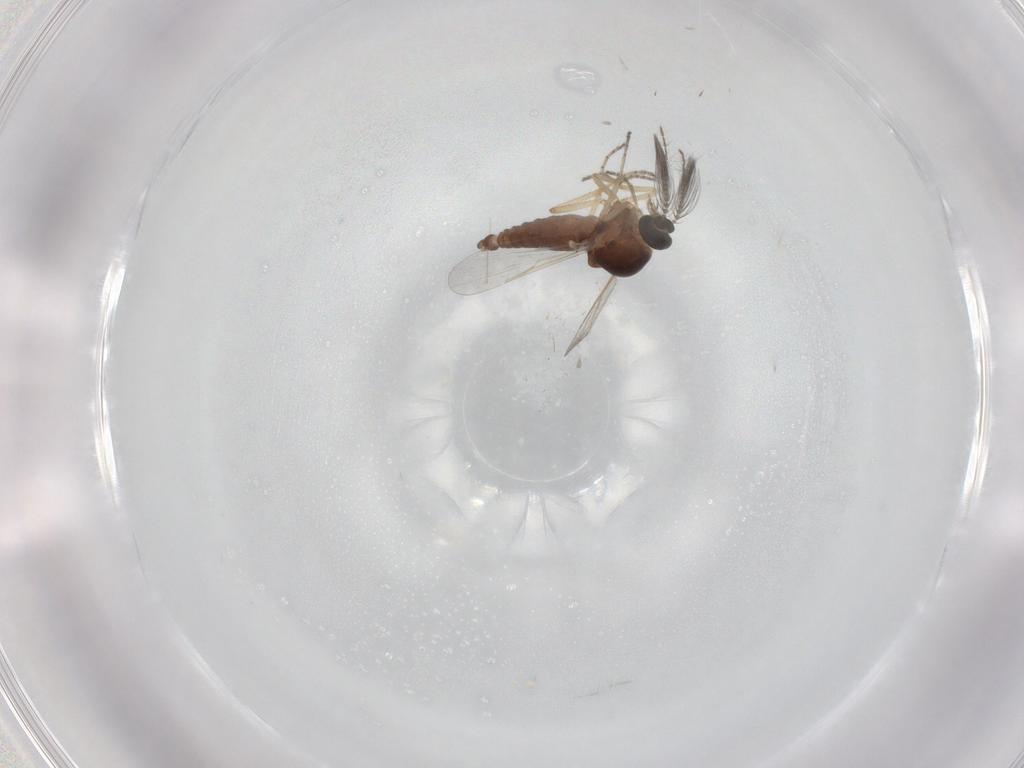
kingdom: Animalia
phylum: Arthropoda
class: Insecta
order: Diptera
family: Ceratopogonidae
